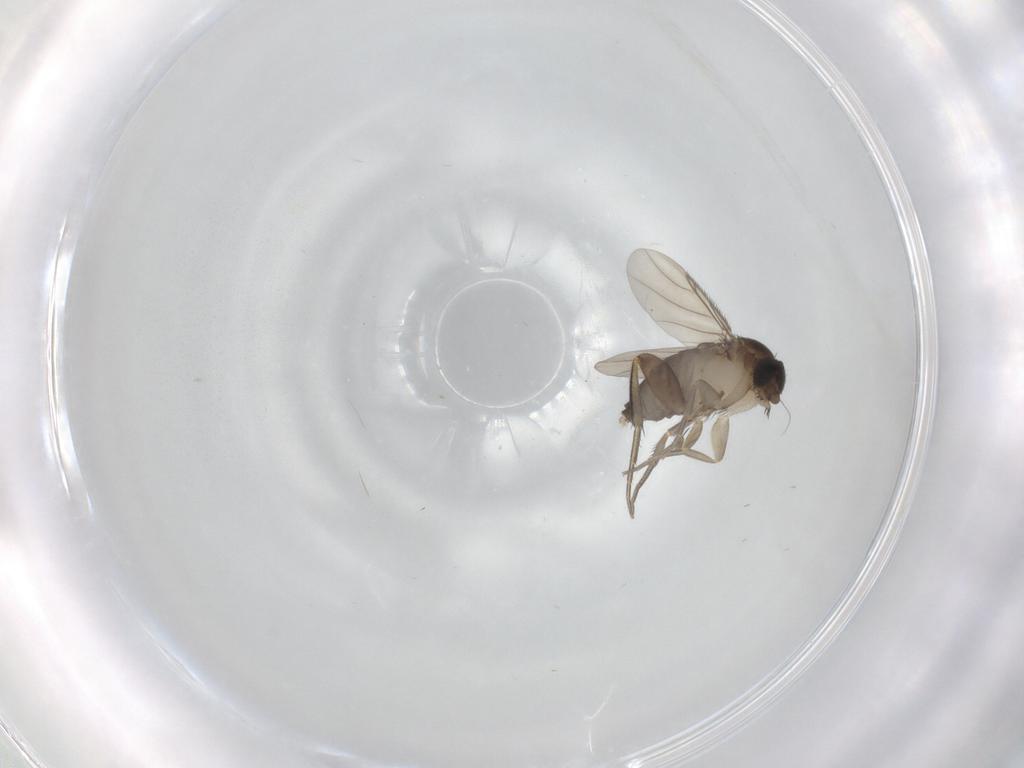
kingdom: Animalia
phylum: Arthropoda
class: Insecta
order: Diptera
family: Phoridae
